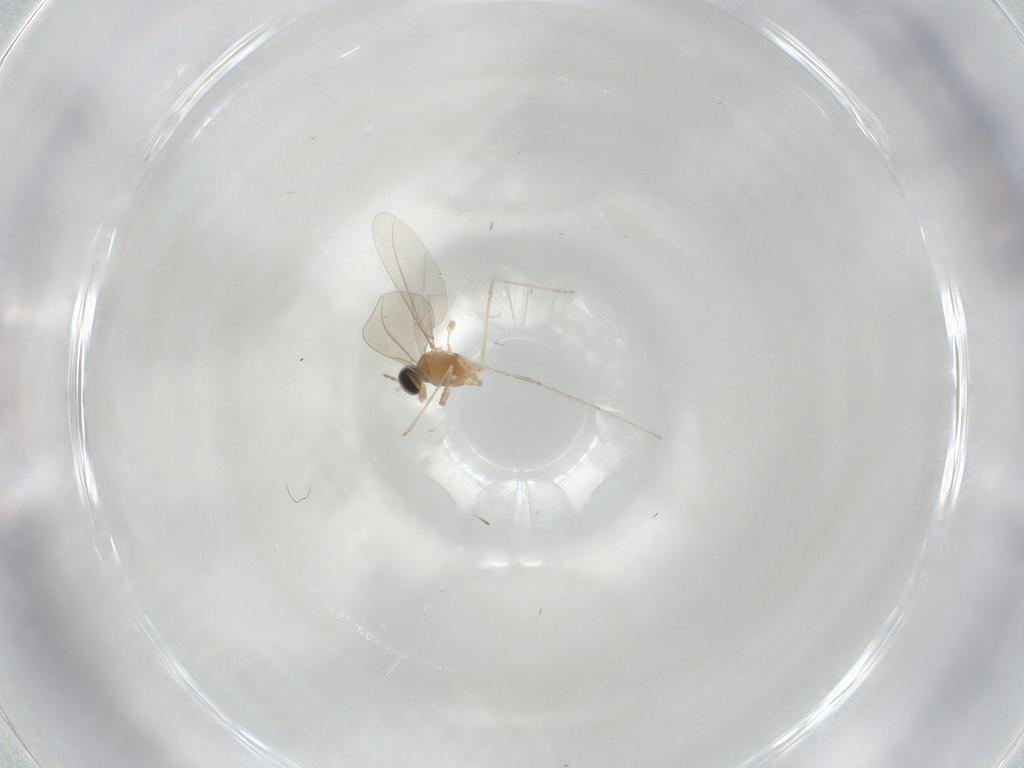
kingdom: Animalia
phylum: Arthropoda
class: Insecta
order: Diptera
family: Cecidomyiidae
